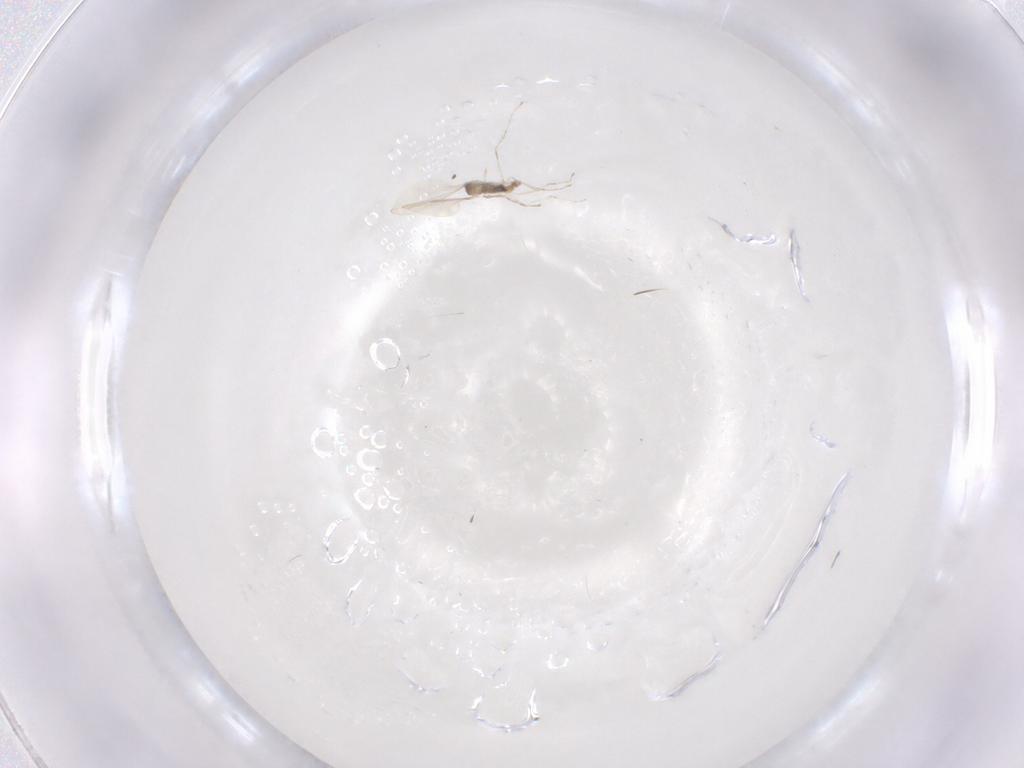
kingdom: Animalia
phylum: Arthropoda
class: Insecta
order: Diptera
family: Cecidomyiidae
